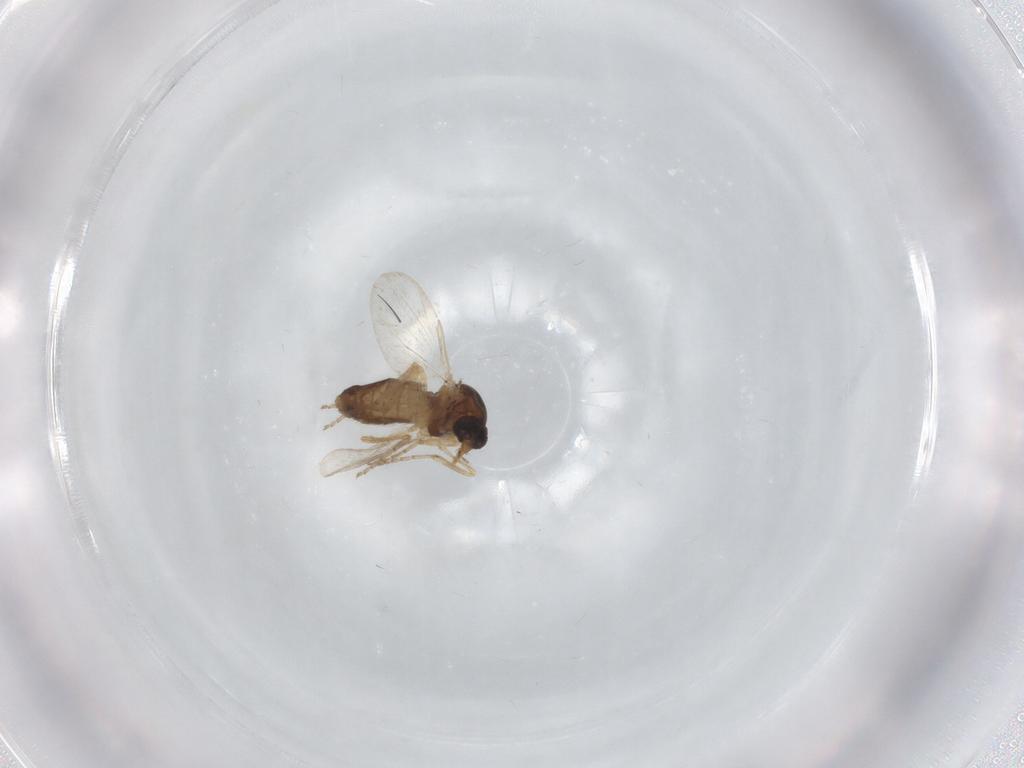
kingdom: Animalia
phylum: Arthropoda
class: Insecta
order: Diptera
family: Ceratopogonidae
